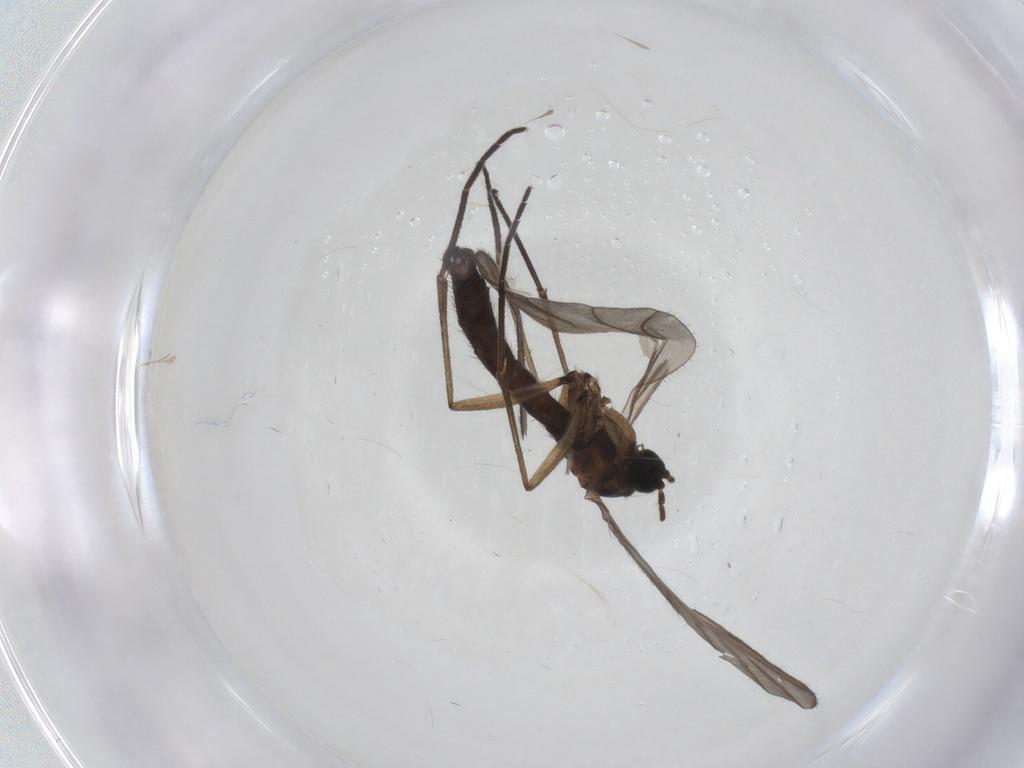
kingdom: Animalia
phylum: Arthropoda
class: Insecta
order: Diptera
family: Sciaridae
